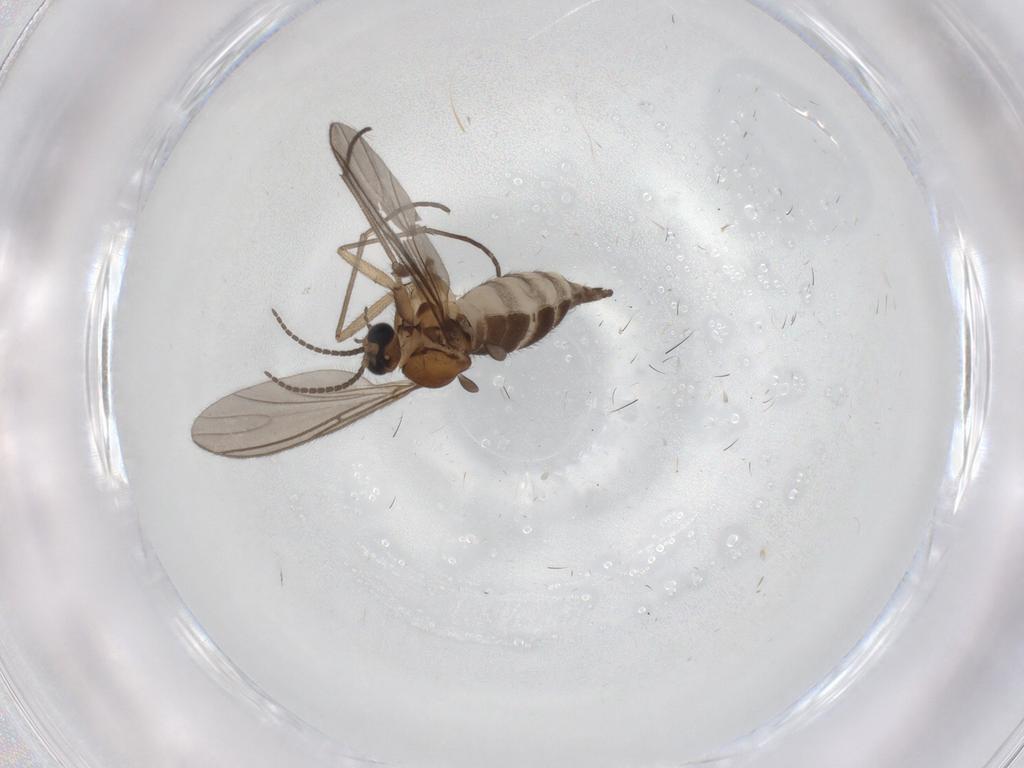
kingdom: Animalia
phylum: Arthropoda
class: Insecta
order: Diptera
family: Sciaridae
